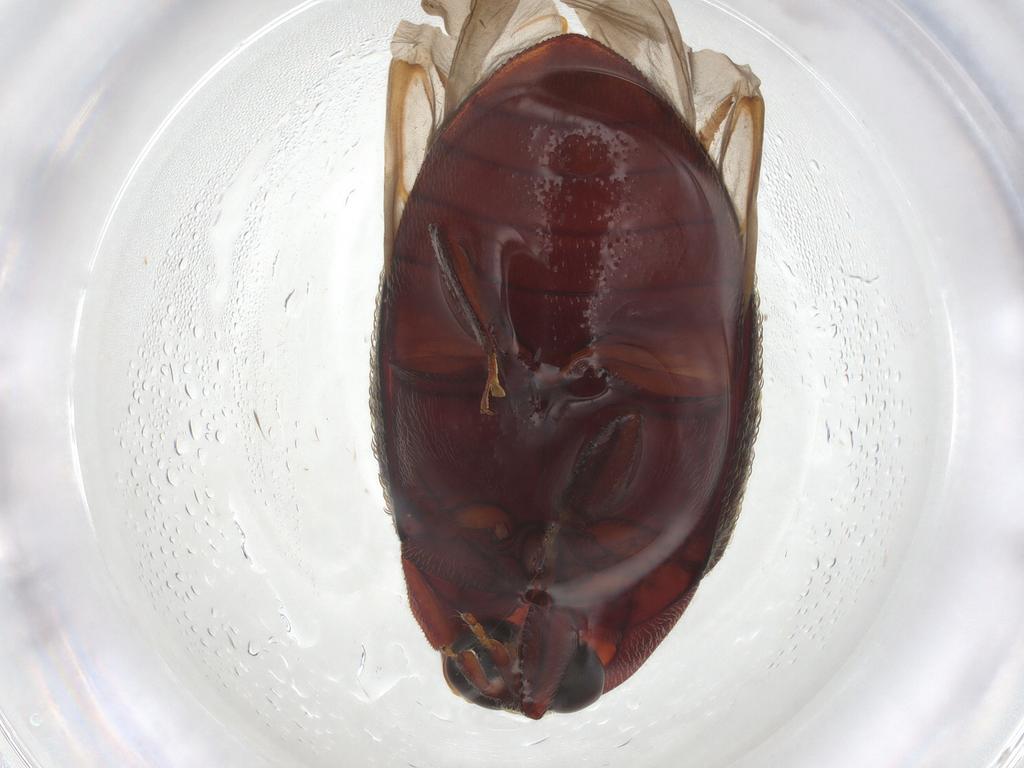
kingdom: Animalia
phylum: Arthropoda
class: Insecta
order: Coleoptera
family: Chelonariidae
